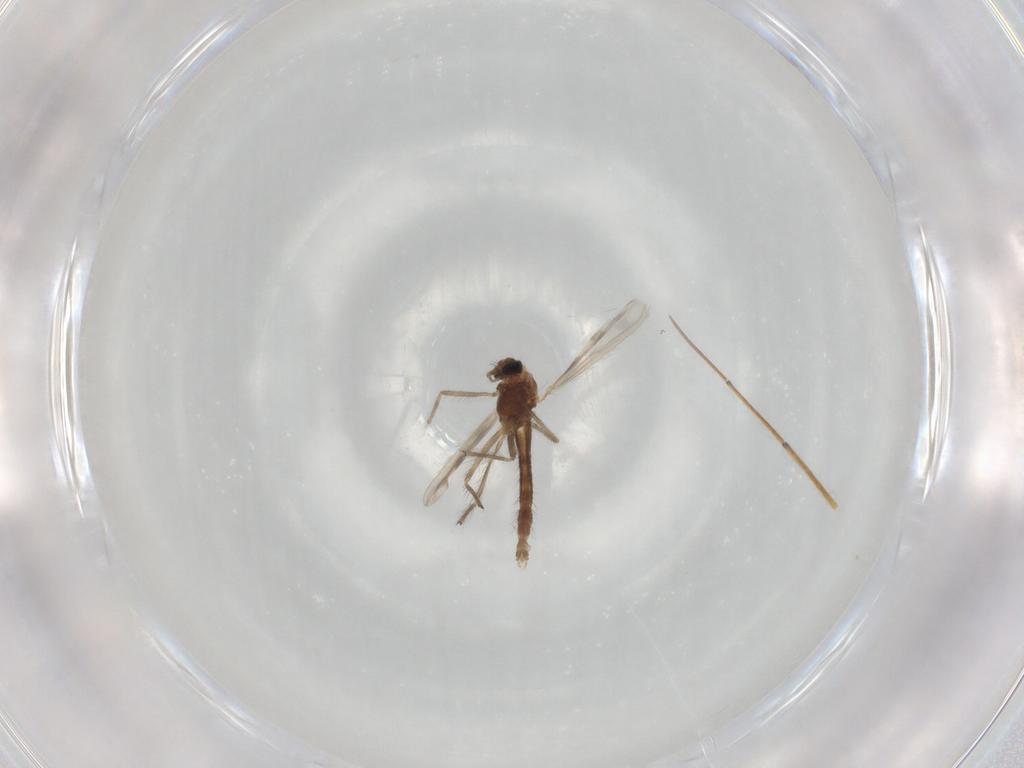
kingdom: Animalia
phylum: Arthropoda
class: Insecta
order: Diptera
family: Chironomidae
